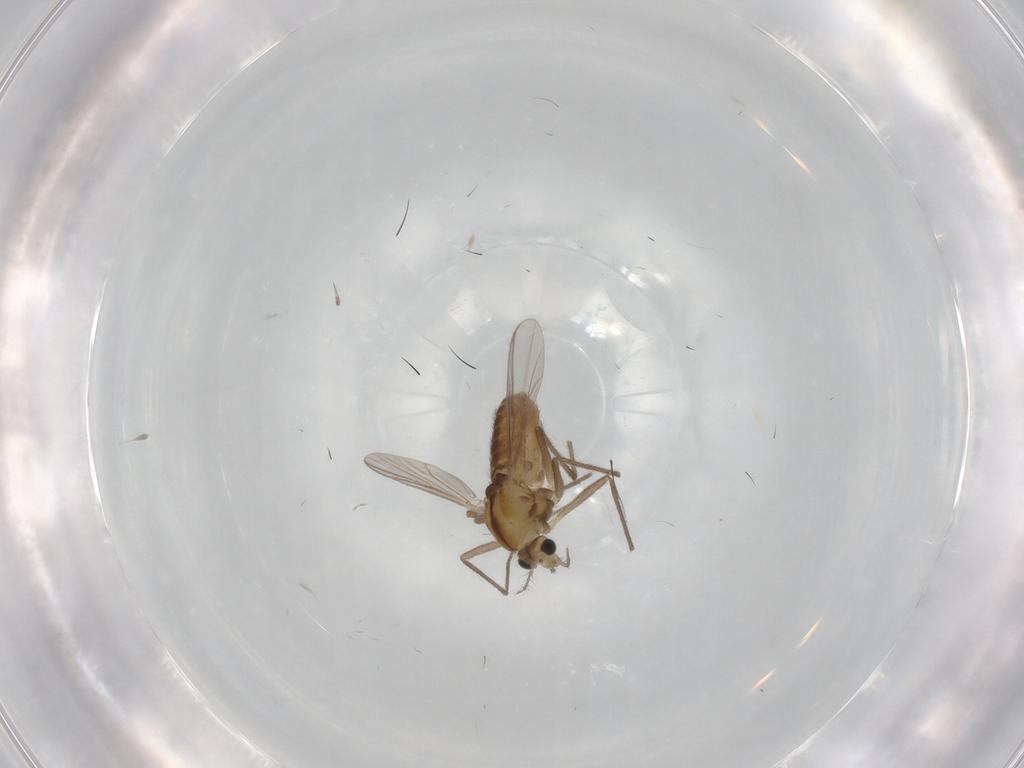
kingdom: Animalia
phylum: Arthropoda
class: Insecta
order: Diptera
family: Chironomidae
